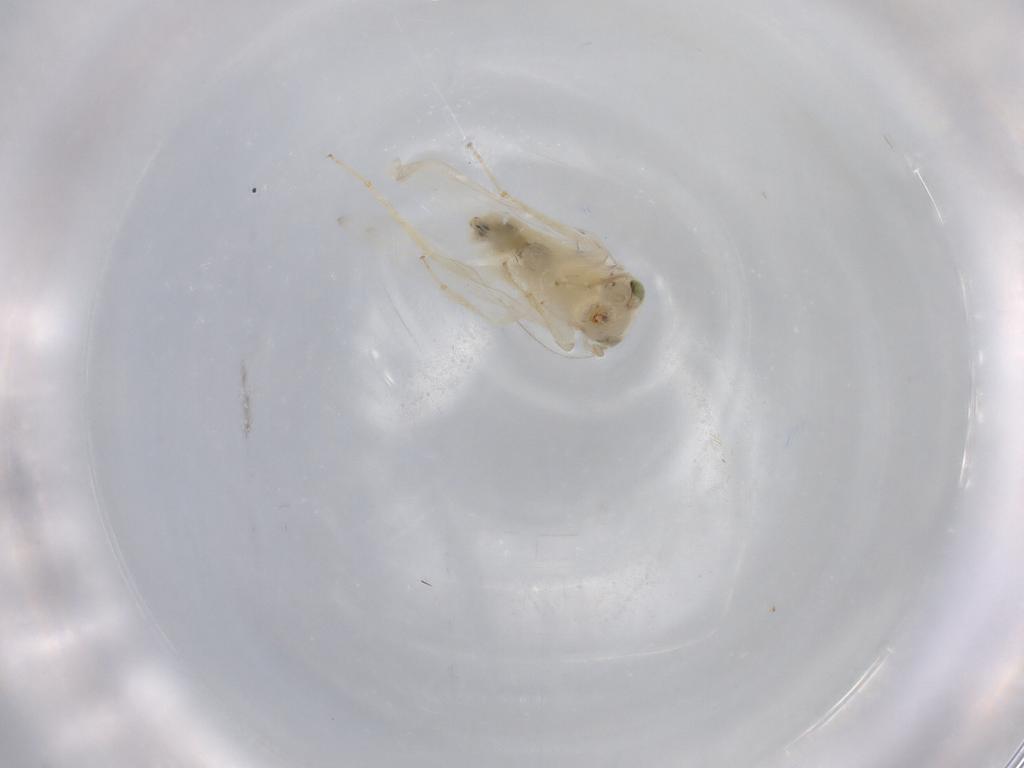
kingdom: Animalia
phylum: Arthropoda
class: Insecta
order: Psocodea
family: Lepidopsocidae
